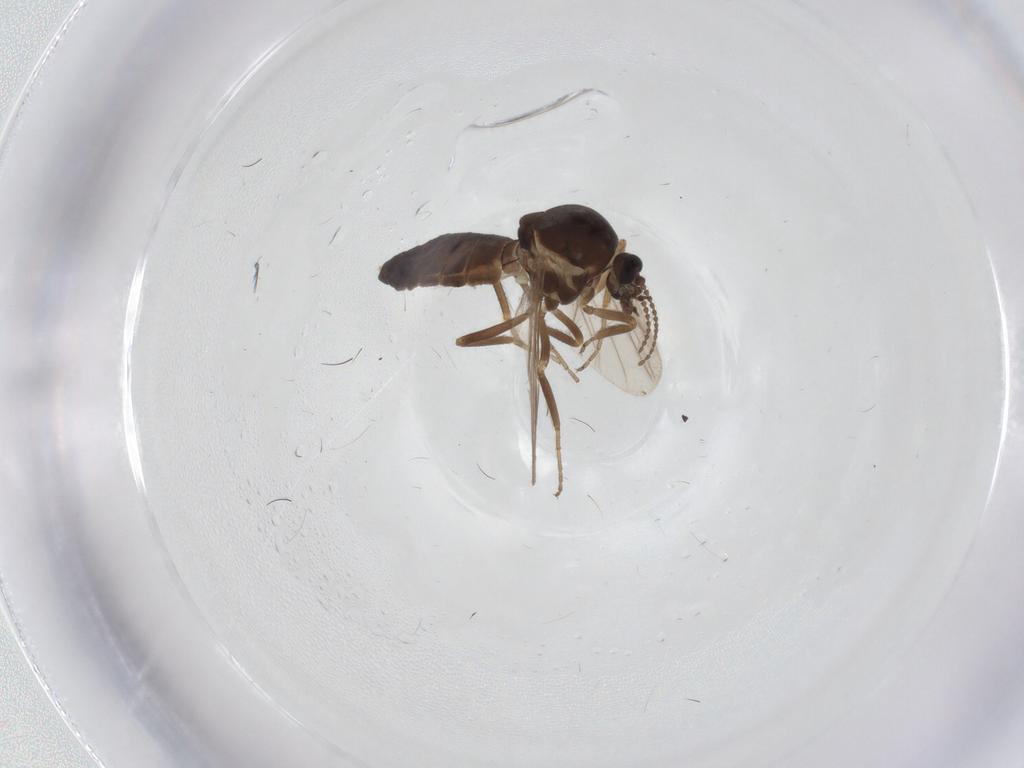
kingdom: Animalia
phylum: Arthropoda
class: Insecta
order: Diptera
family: Ceratopogonidae
